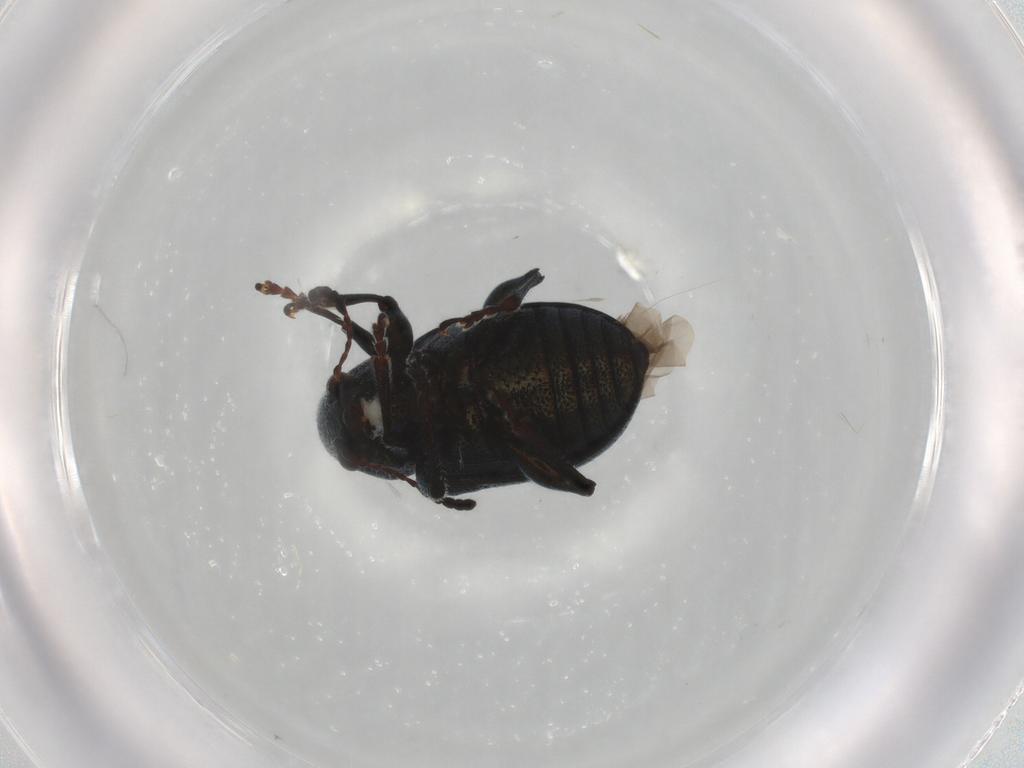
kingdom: Animalia
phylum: Arthropoda
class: Insecta
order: Coleoptera
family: Chrysomelidae
